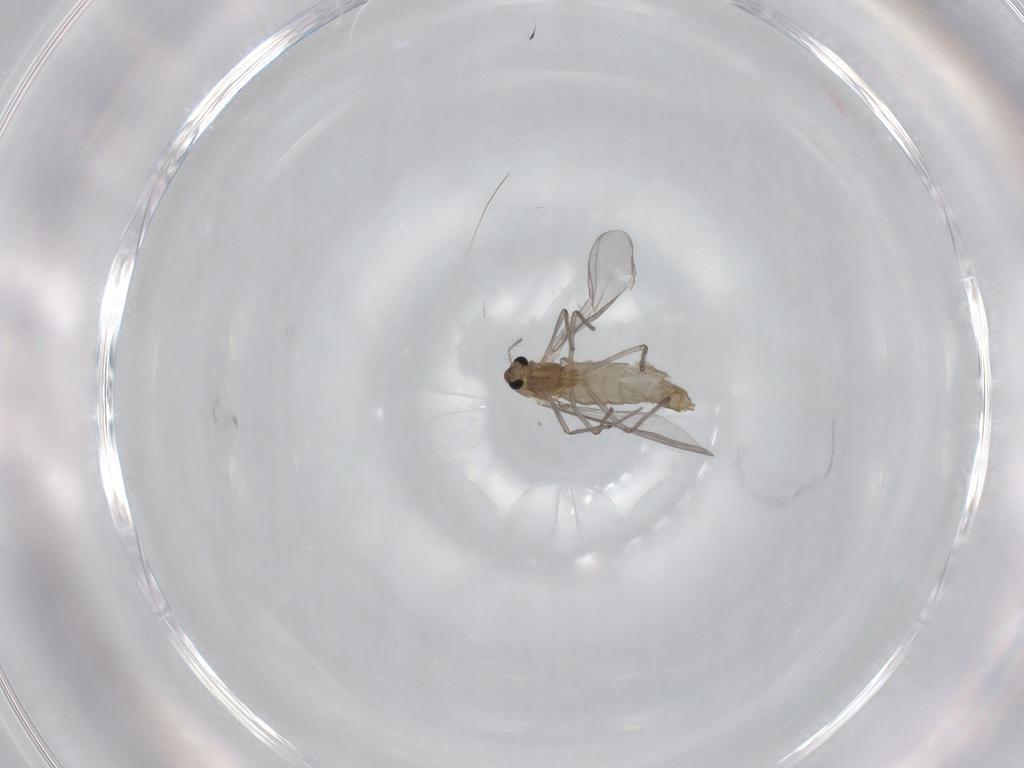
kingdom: Animalia
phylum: Arthropoda
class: Insecta
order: Diptera
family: Chironomidae
